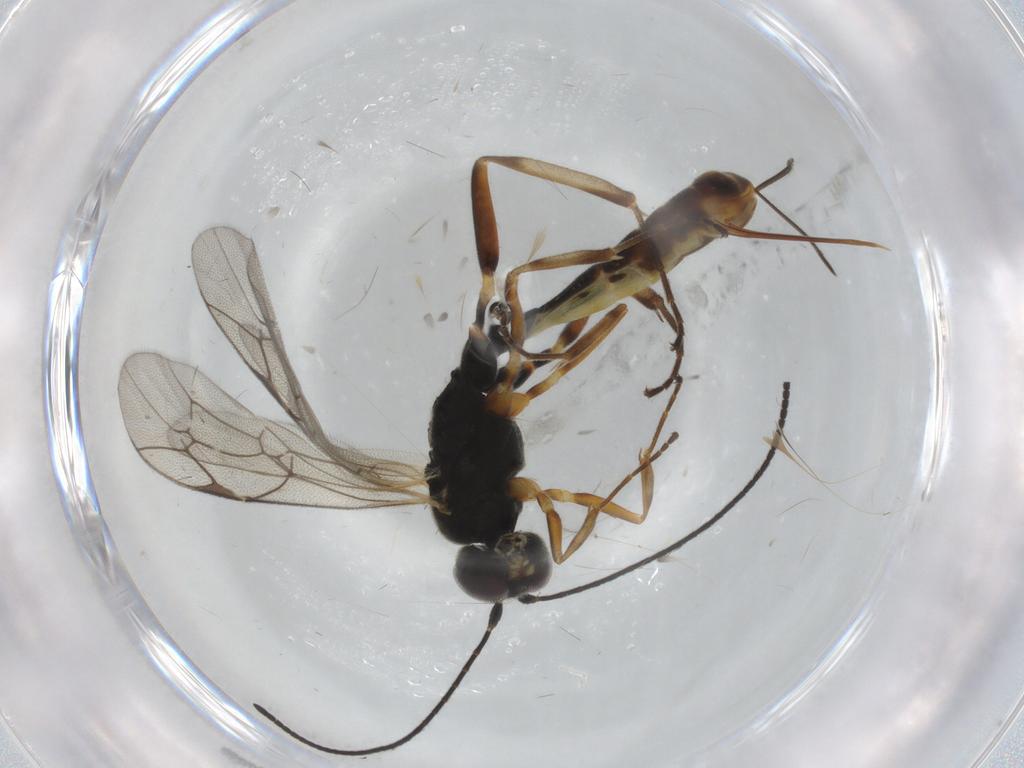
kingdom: Animalia
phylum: Arthropoda
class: Insecta
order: Hymenoptera
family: Ichneumonidae
